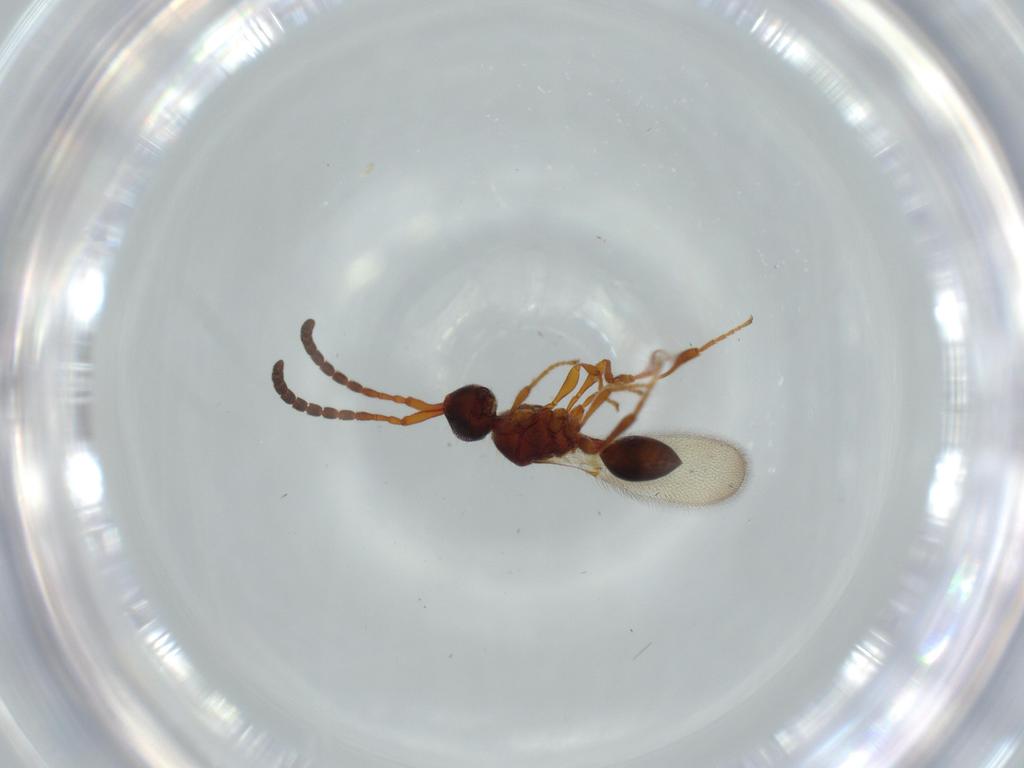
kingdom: Animalia
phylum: Arthropoda
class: Insecta
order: Hymenoptera
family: Diapriidae
